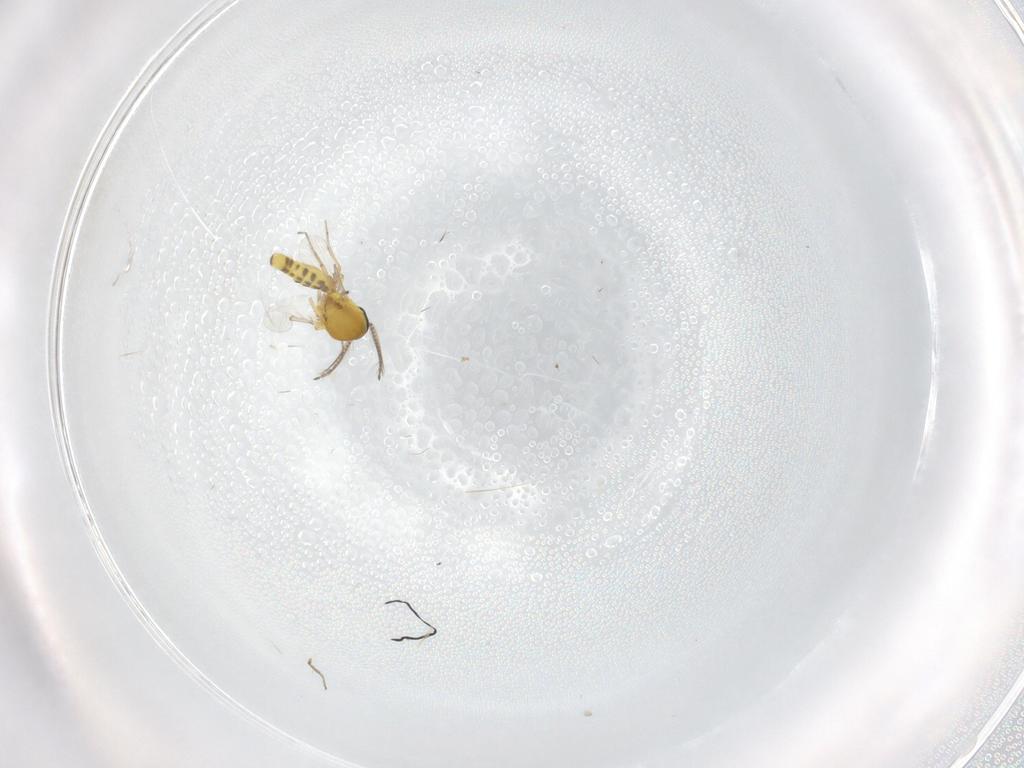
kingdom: Animalia
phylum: Arthropoda
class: Insecta
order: Diptera
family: Ceratopogonidae
